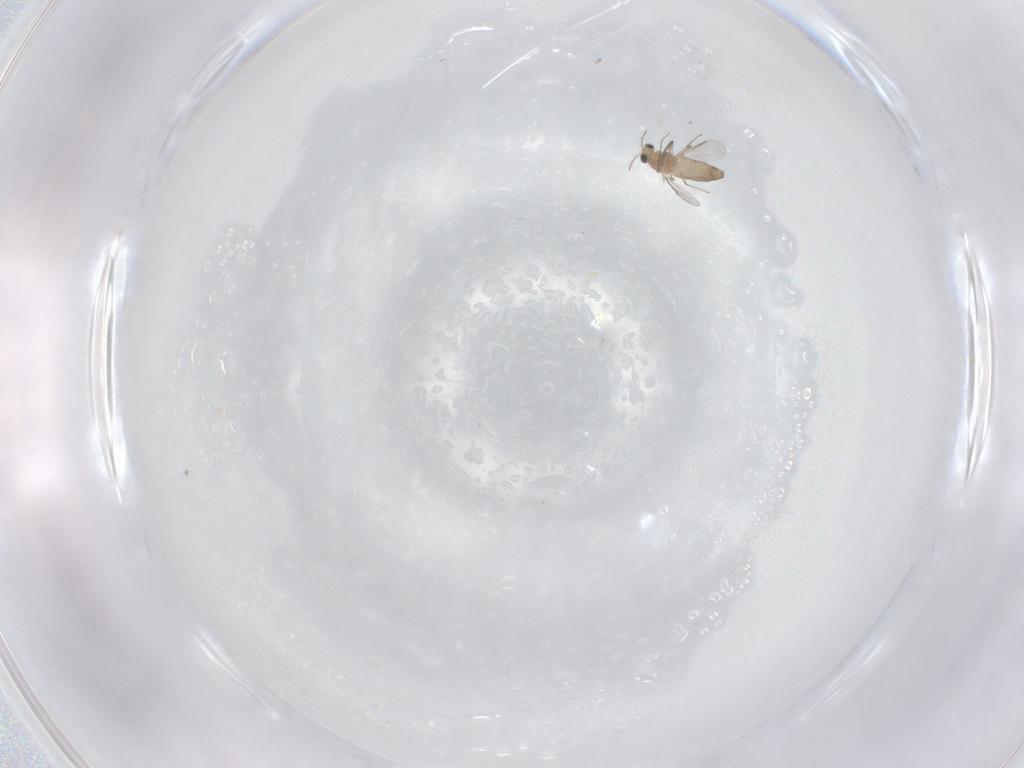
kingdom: Animalia
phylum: Arthropoda
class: Insecta
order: Diptera
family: Chironomidae
